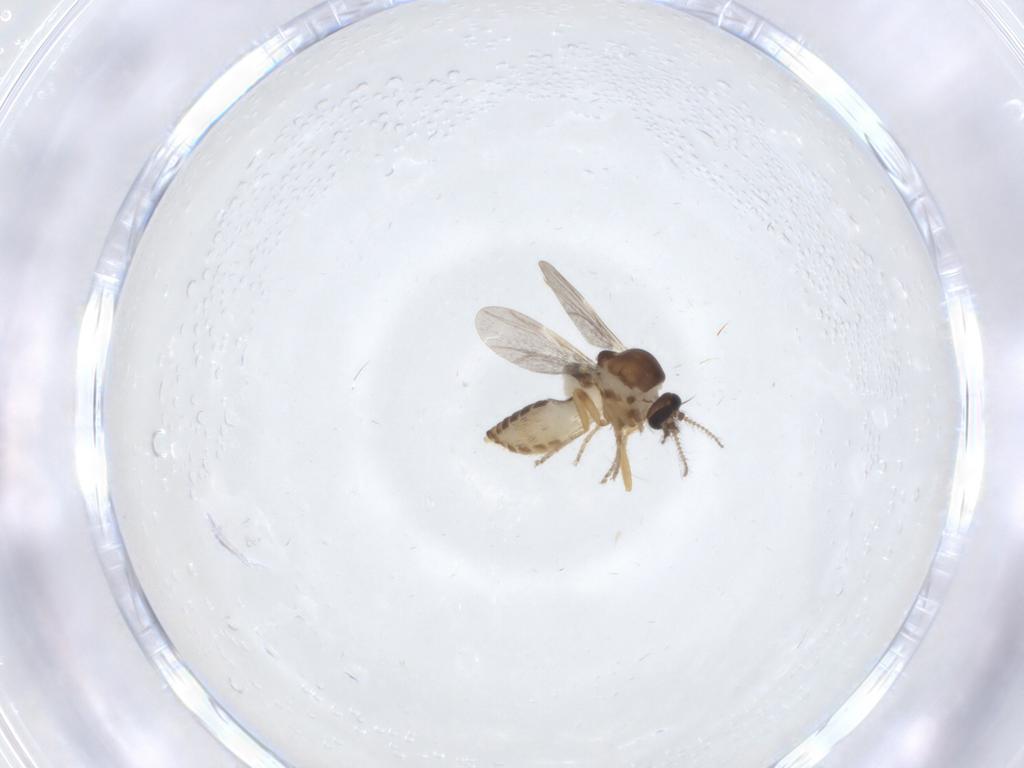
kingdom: Animalia
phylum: Arthropoda
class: Insecta
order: Diptera
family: Ceratopogonidae
